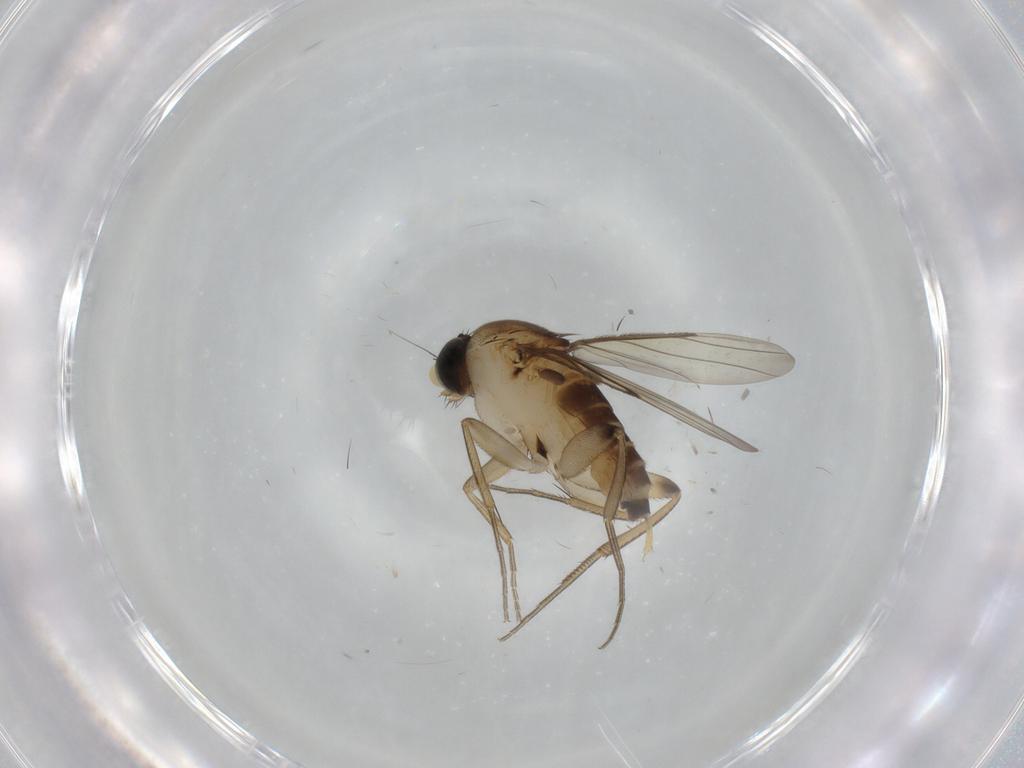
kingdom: Animalia
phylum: Arthropoda
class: Insecta
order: Diptera
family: Phoridae
